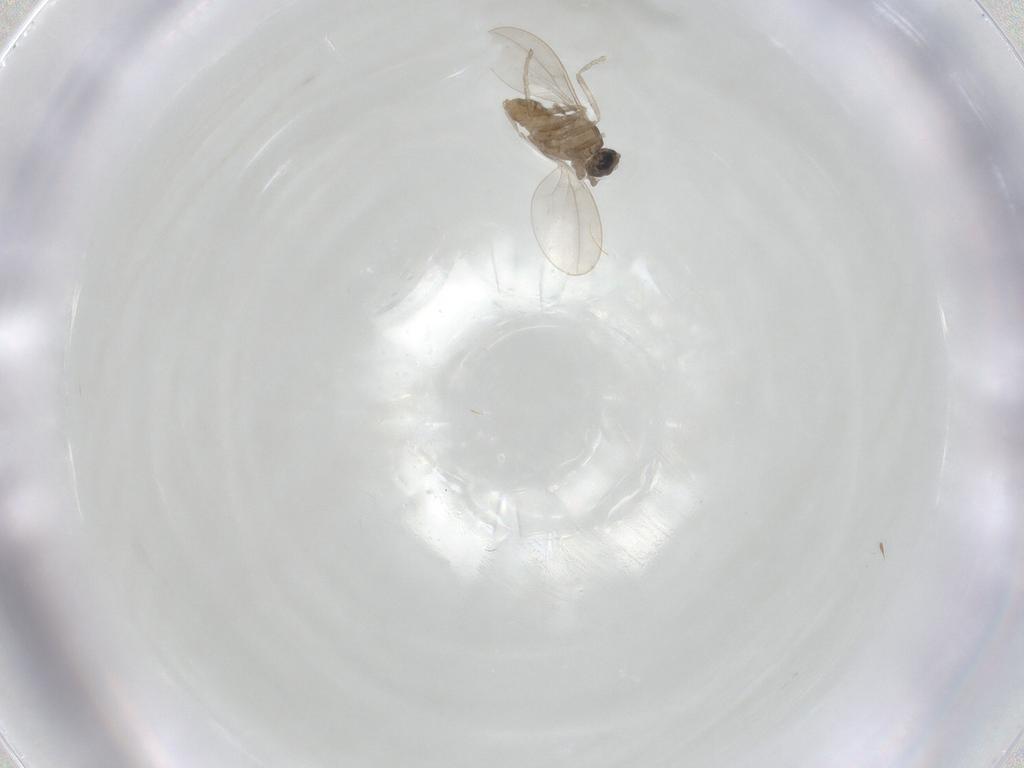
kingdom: Animalia
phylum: Arthropoda
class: Insecta
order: Diptera
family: Cecidomyiidae
